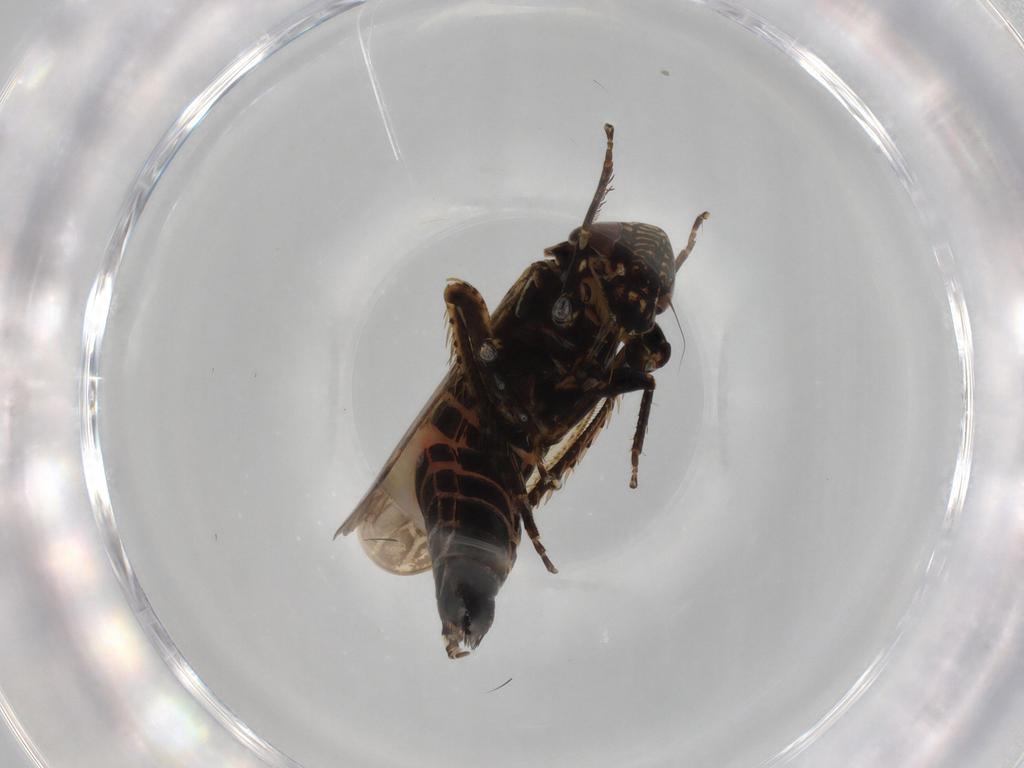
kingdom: Animalia
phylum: Arthropoda
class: Insecta
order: Hemiptera
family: Cicadellidae
